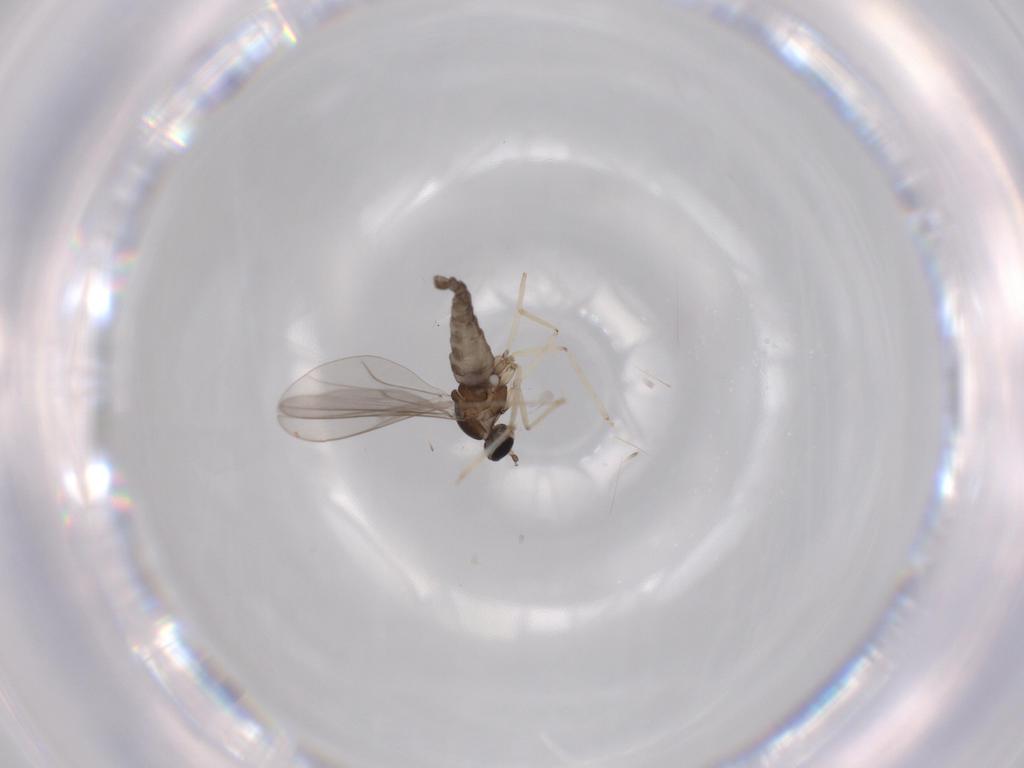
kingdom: Animalia
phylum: Arthropoda
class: Insecta
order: Diptera
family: Cecidomyiidae
